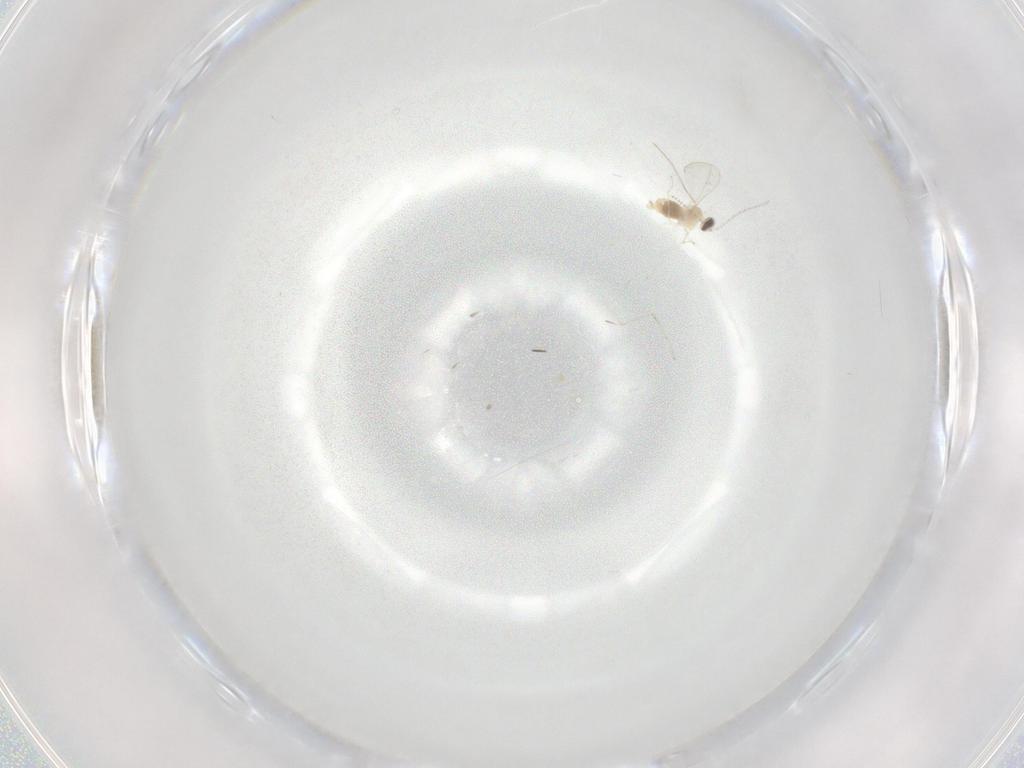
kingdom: Animalia
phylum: Arthropoda
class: Insecta
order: Diptera
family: Cecidomyiidae
